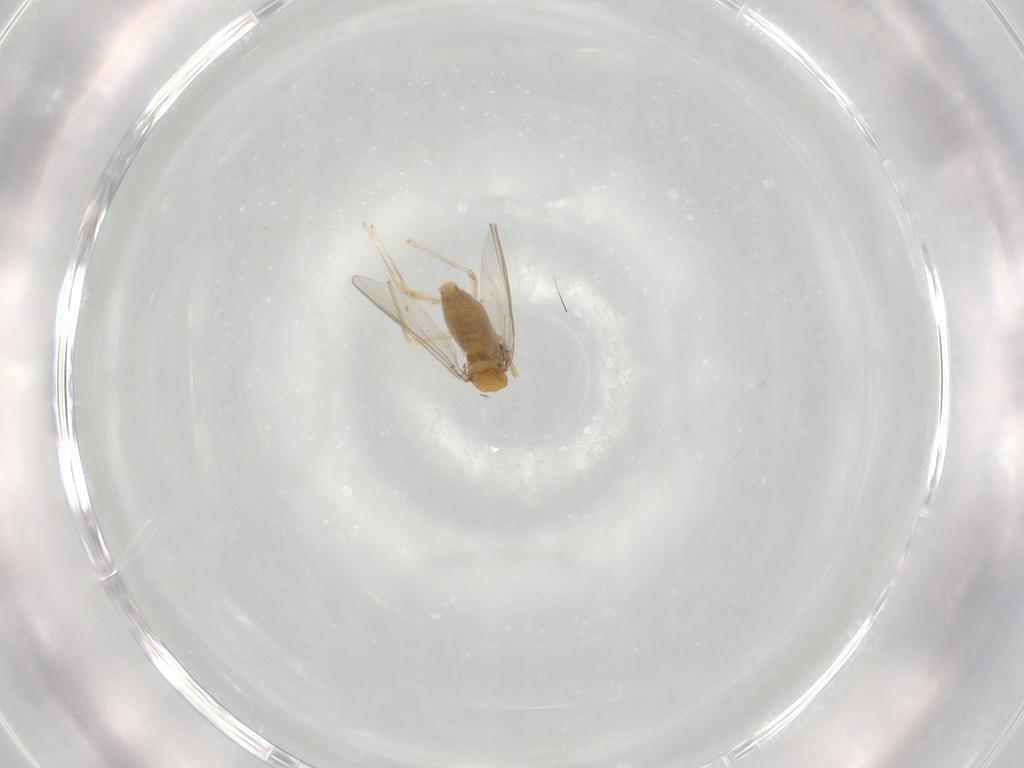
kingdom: Animalia
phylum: Arthropoda
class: Insecta
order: Diptera
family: Chironomidae
